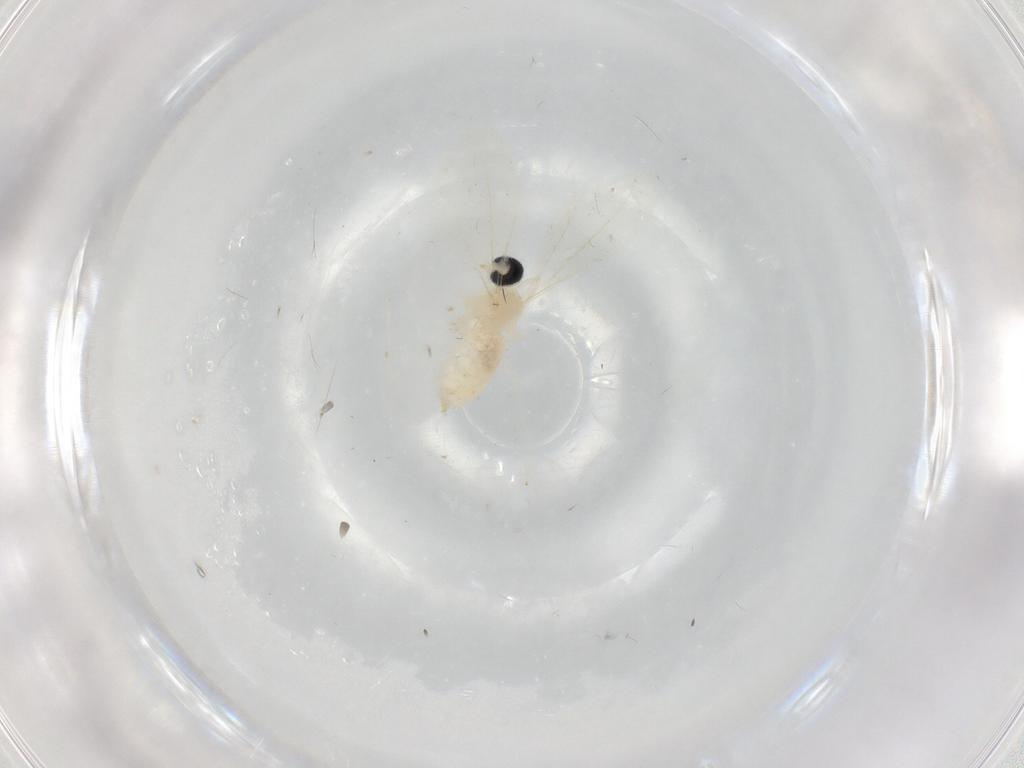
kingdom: Animalia
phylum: Arthropoda
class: Insecta
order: Diptera
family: Cecidomyiidae
